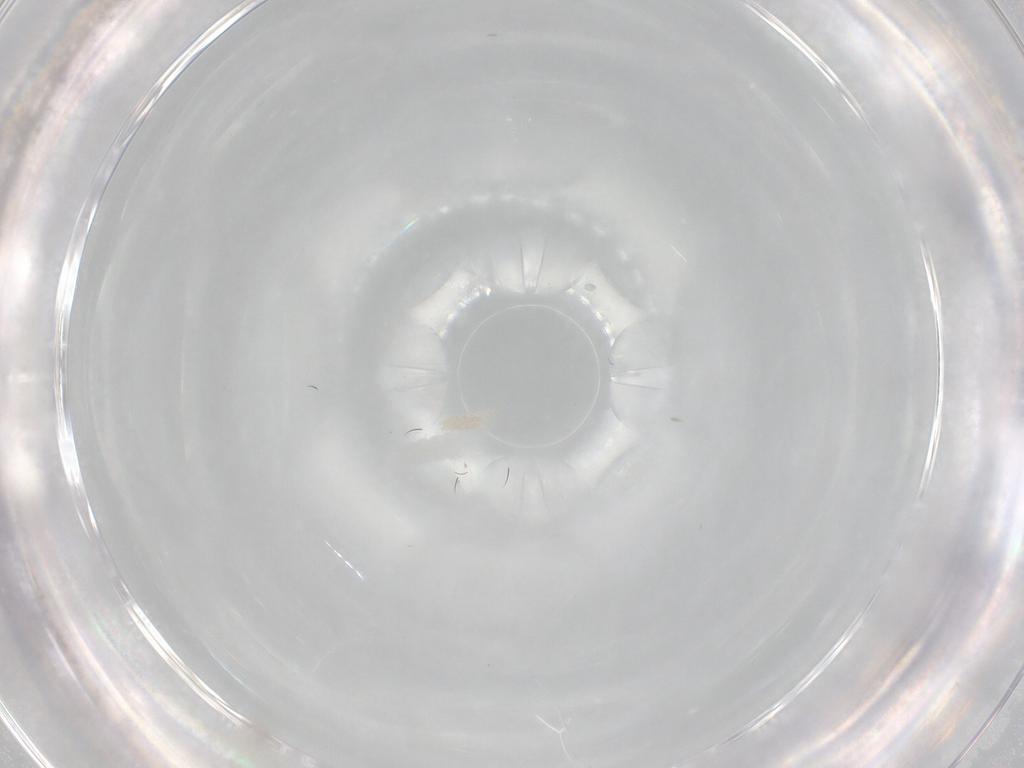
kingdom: Animalia
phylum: Arthropoda
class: Insecta
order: Lepidoptera
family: Tineidae
